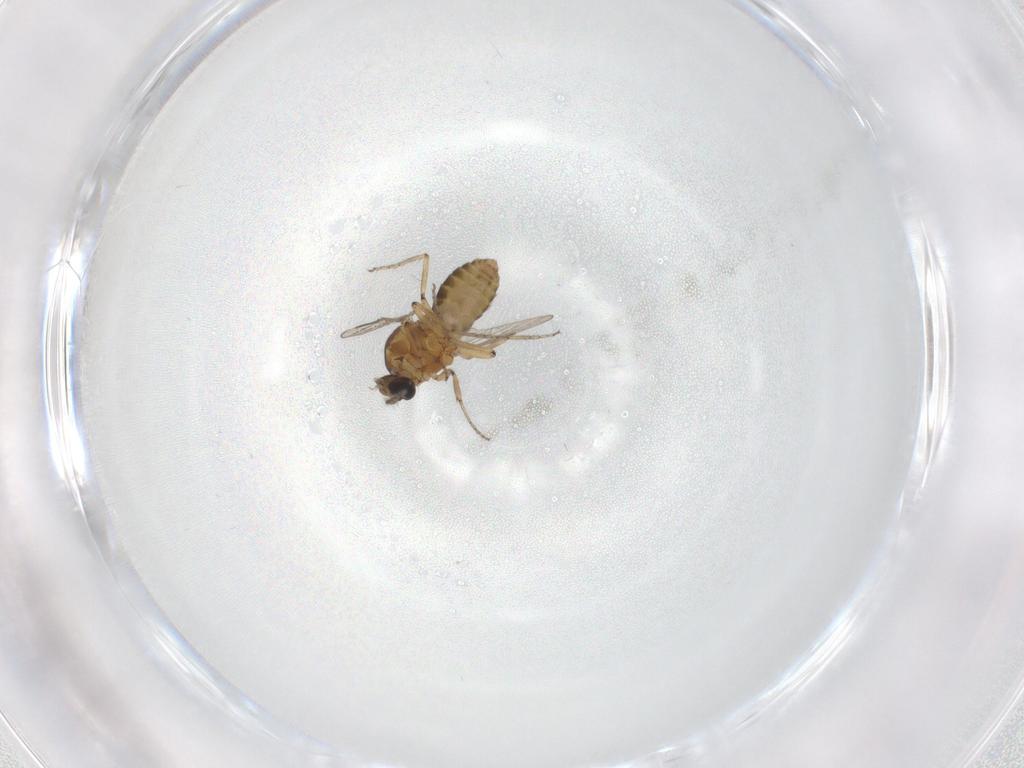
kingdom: Animalia
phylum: Arthropoda
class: Insecta
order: Diptera
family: Ceratopogonidae
